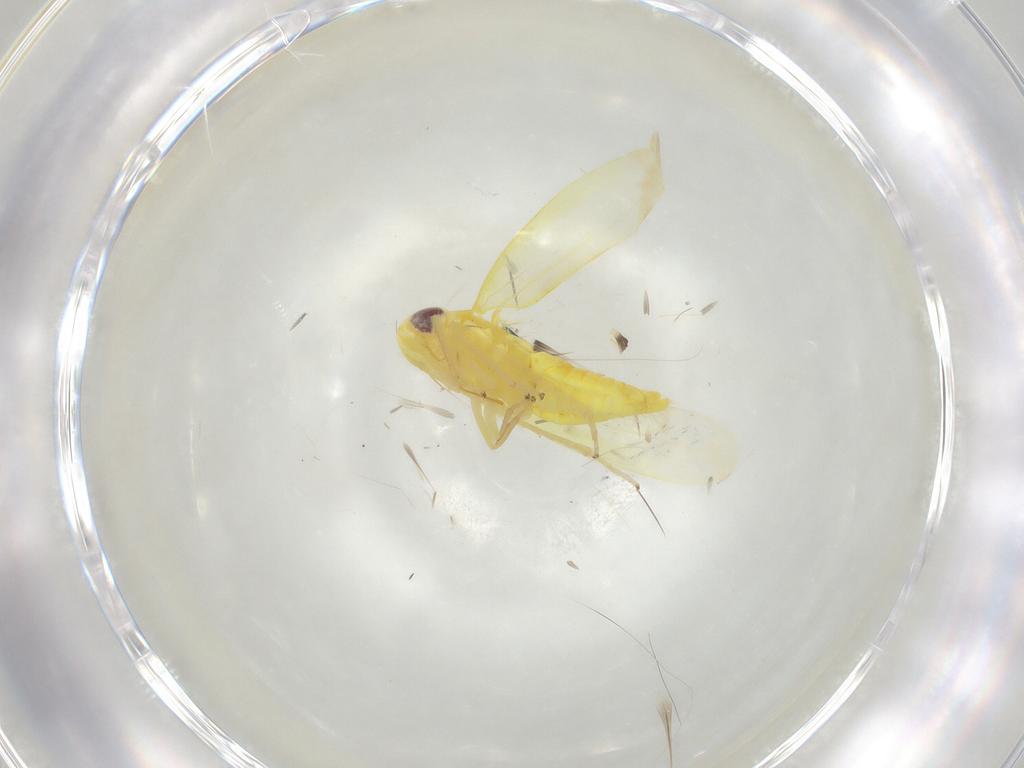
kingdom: Animalia
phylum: Arthropoda
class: Insecta
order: Hemiptera
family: Cicadellidae
